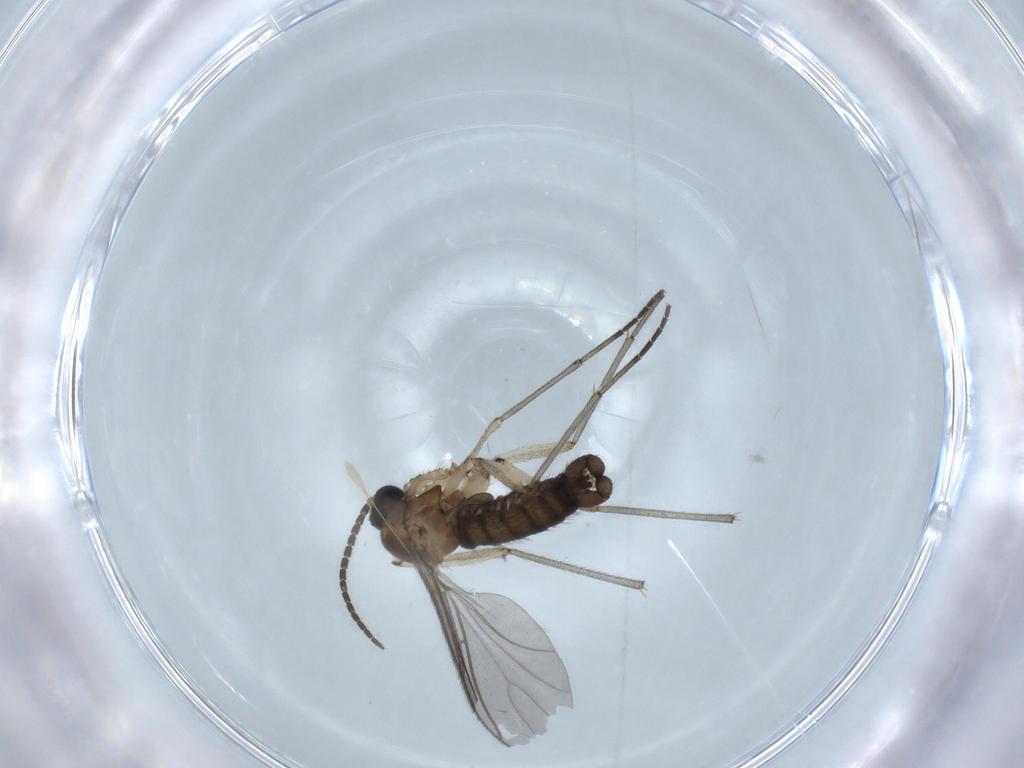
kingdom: Animalia
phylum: Arthropoda
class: Insecta
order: Diptera
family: Sciaridae
